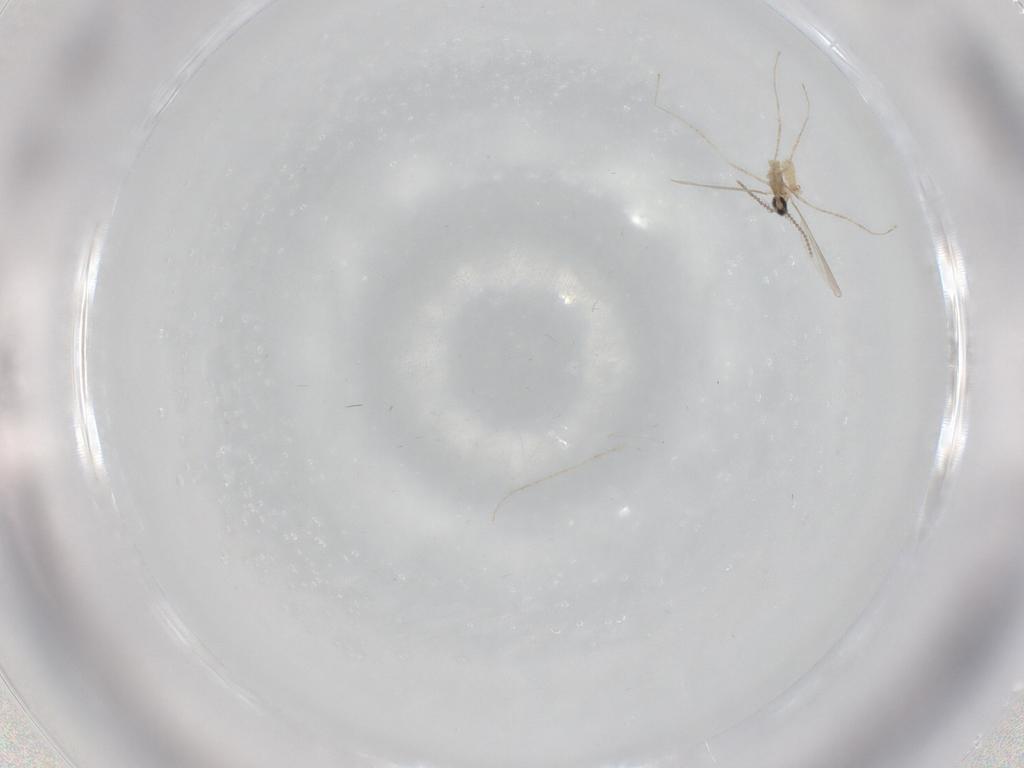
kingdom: Animalia
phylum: Arthropoda
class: Insecta
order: Diptera
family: Cecidomyiidae
